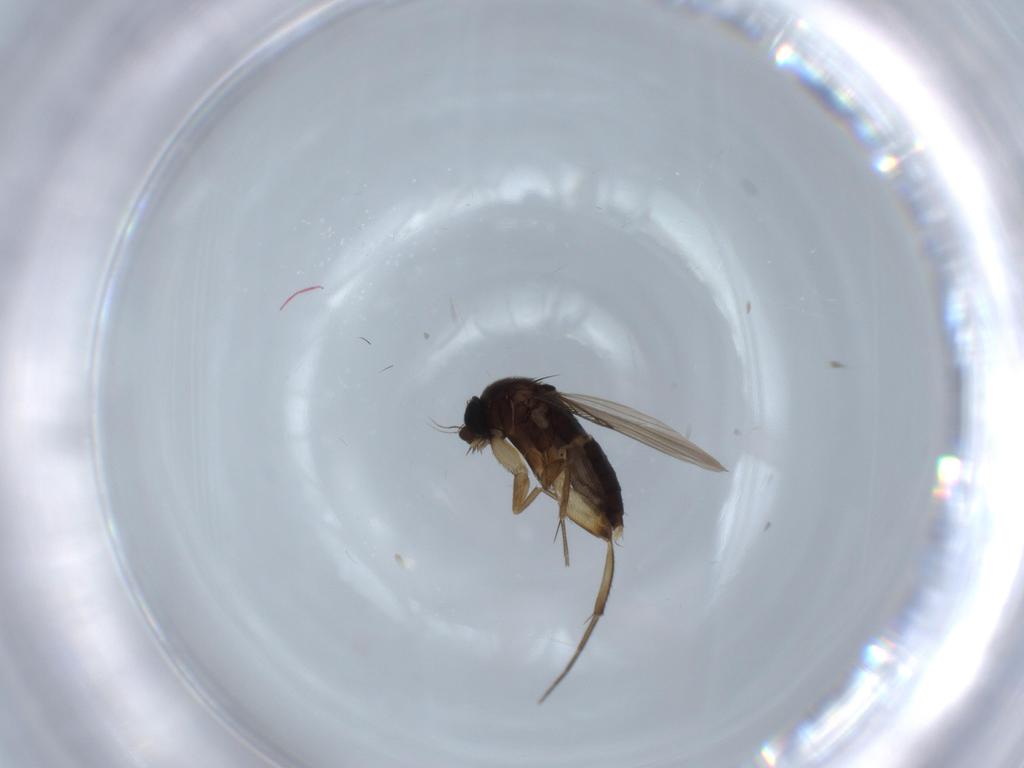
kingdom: Animalia
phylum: Arthropoda
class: Insecta
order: Diptera
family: Phoridae
